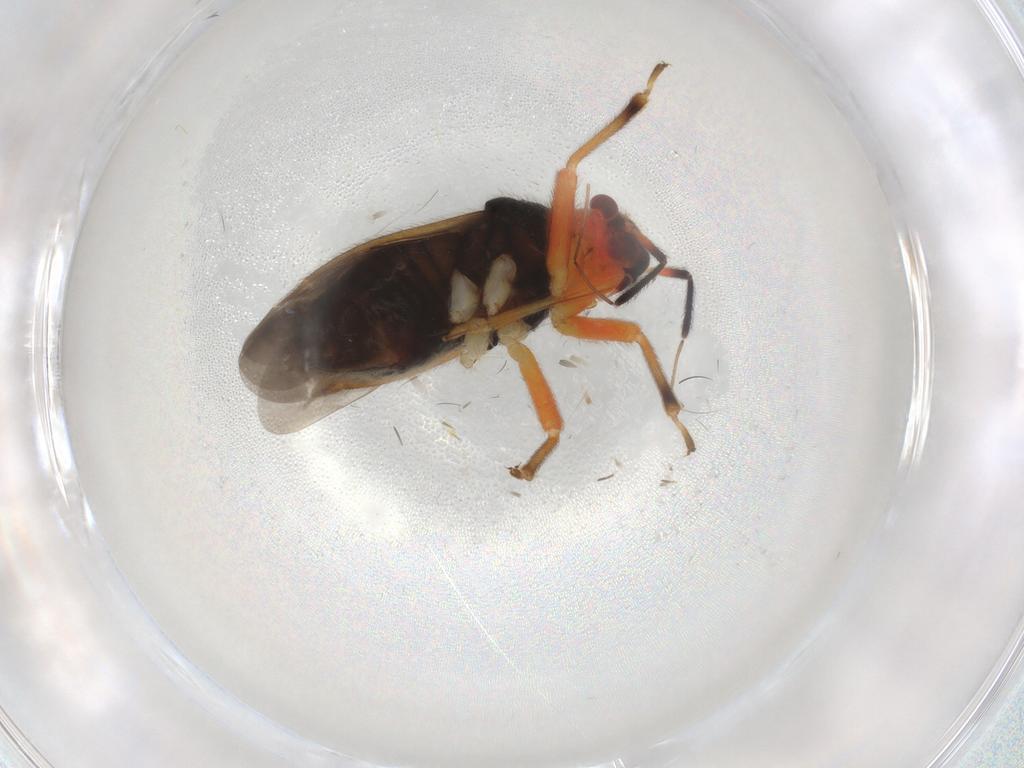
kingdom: Animalia
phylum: Arthropoda
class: Insecta
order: Hemiptera
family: Miridae
